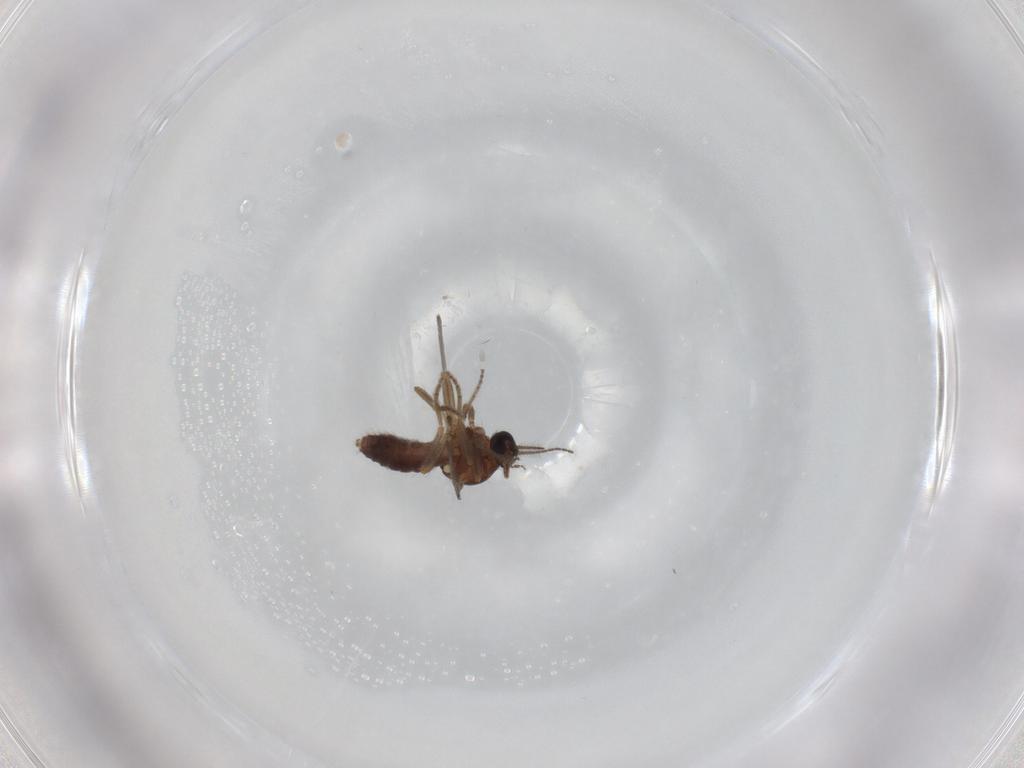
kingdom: Animalia
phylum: Arthropoda
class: Insecta
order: Diptera
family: Ceratopogonidae
